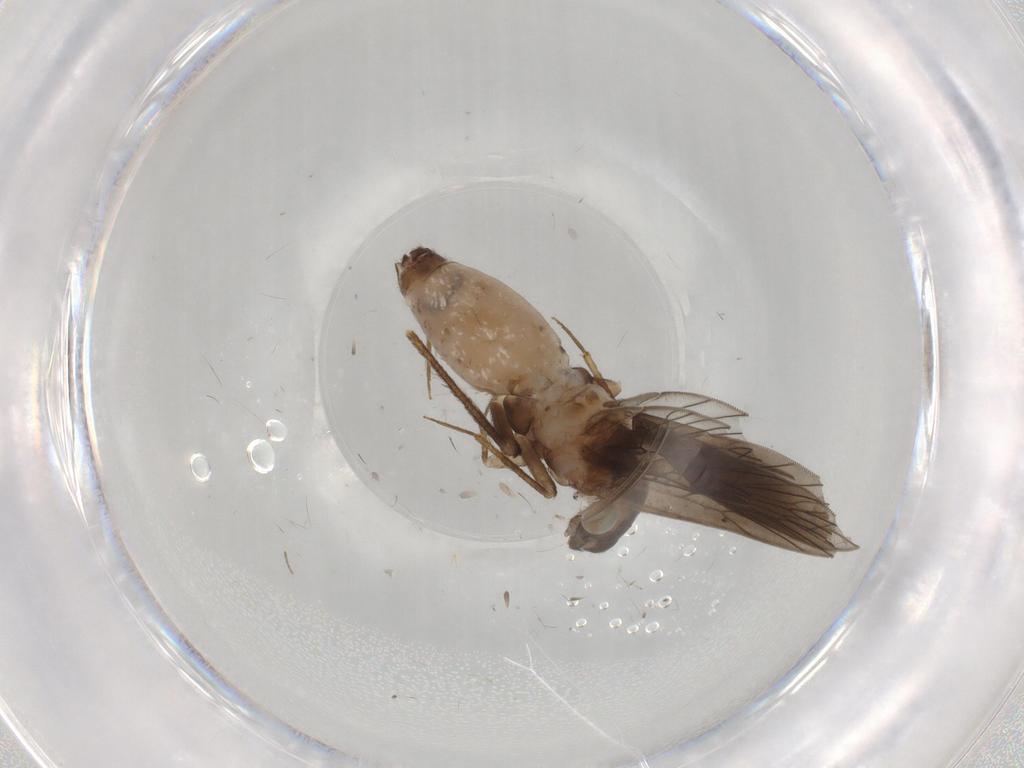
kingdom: Animalia
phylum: Arthropoda
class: Insecta
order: Psocodea
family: Lepidopsocidae
